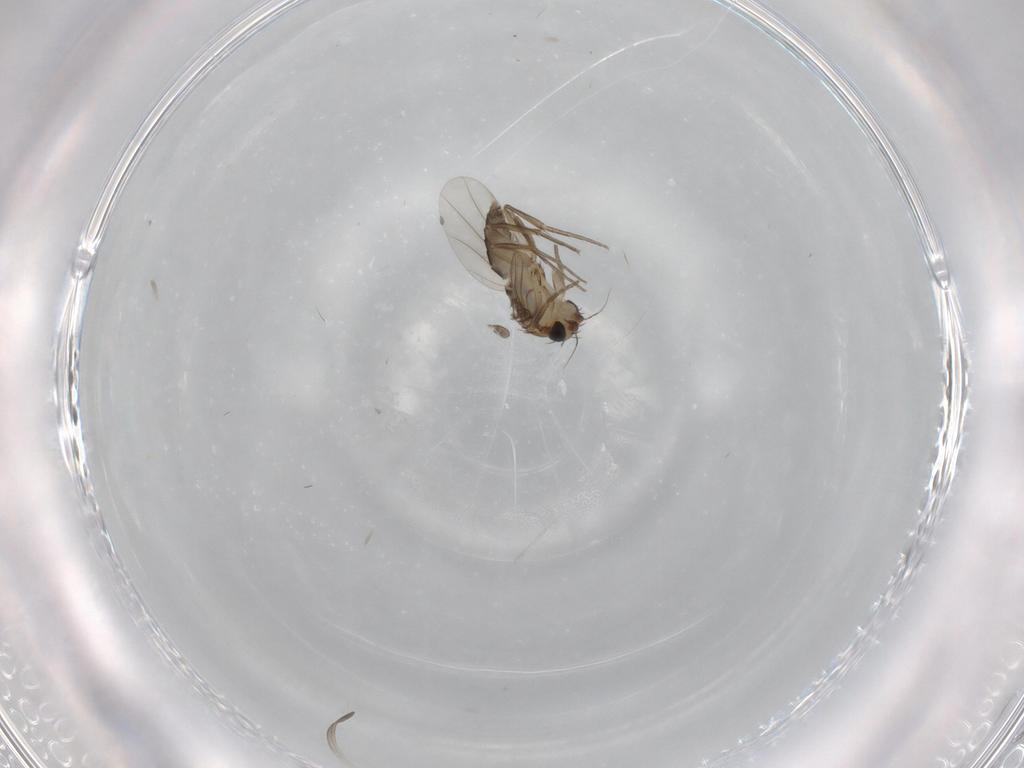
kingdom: Animalia
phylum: Arthropoda
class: Insecta
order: Diptera
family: Phoridae
